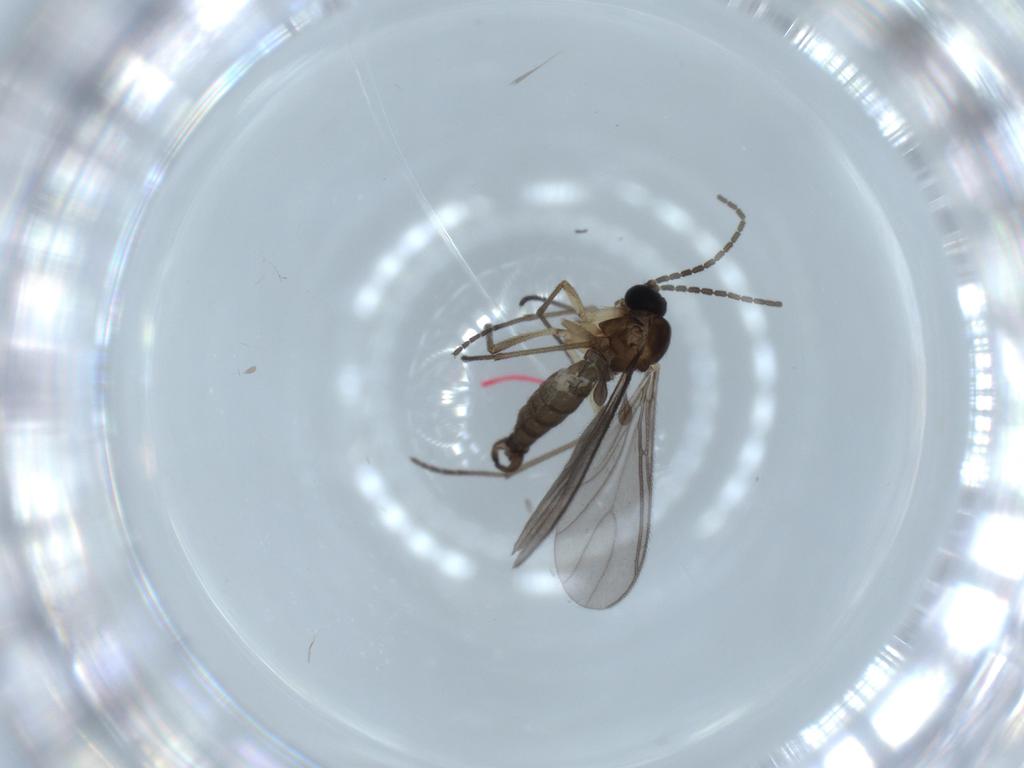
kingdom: Animalia
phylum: Arthropoda
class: Insecta
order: Diptera
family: Sciaridae
